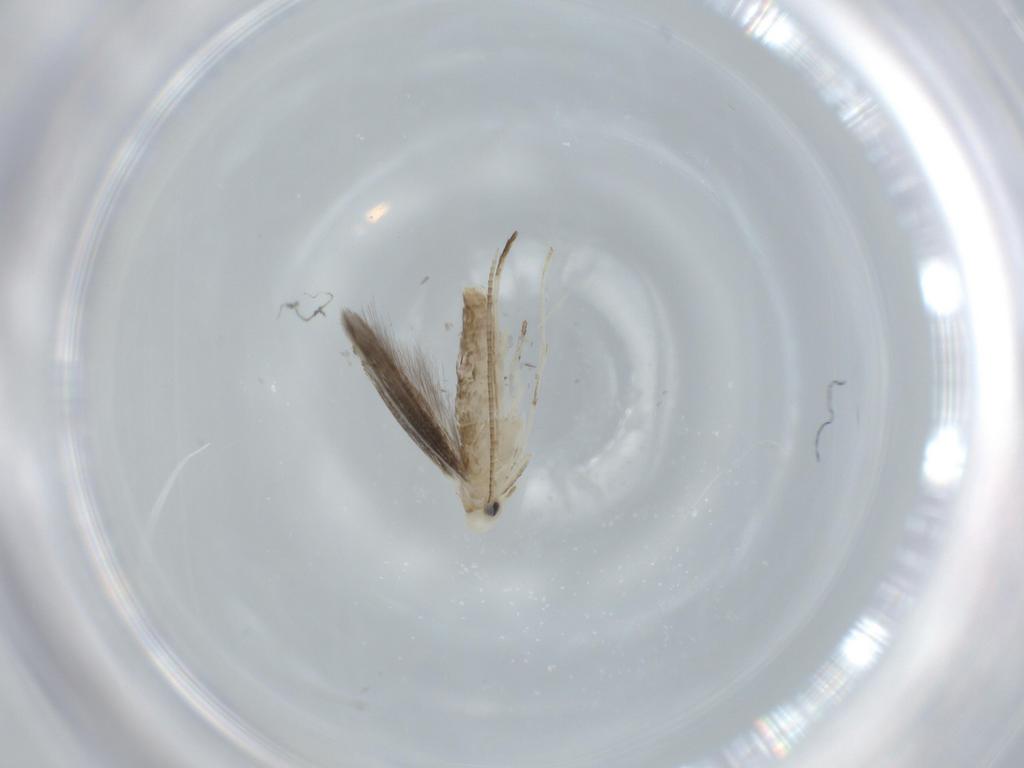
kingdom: Animalia
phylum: Arthropoda
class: Insecta
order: Lepidoptera
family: Gracillariidae
